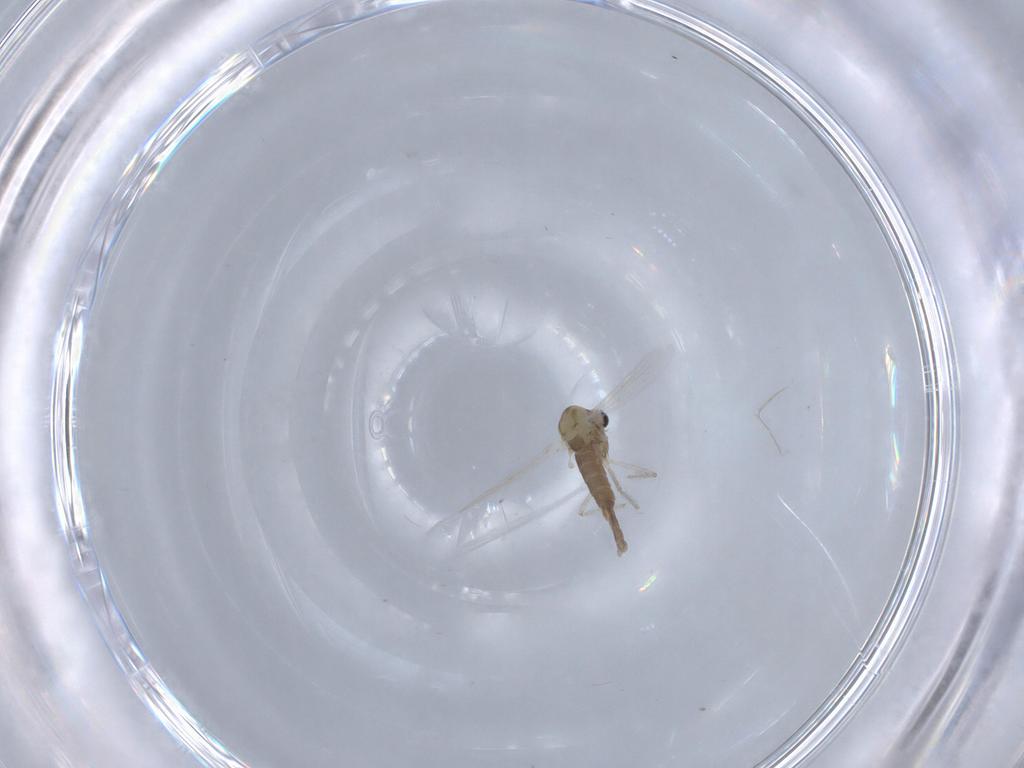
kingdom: Animalia
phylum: Arthropoda
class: Insecta
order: Diptera
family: Chironomidae
